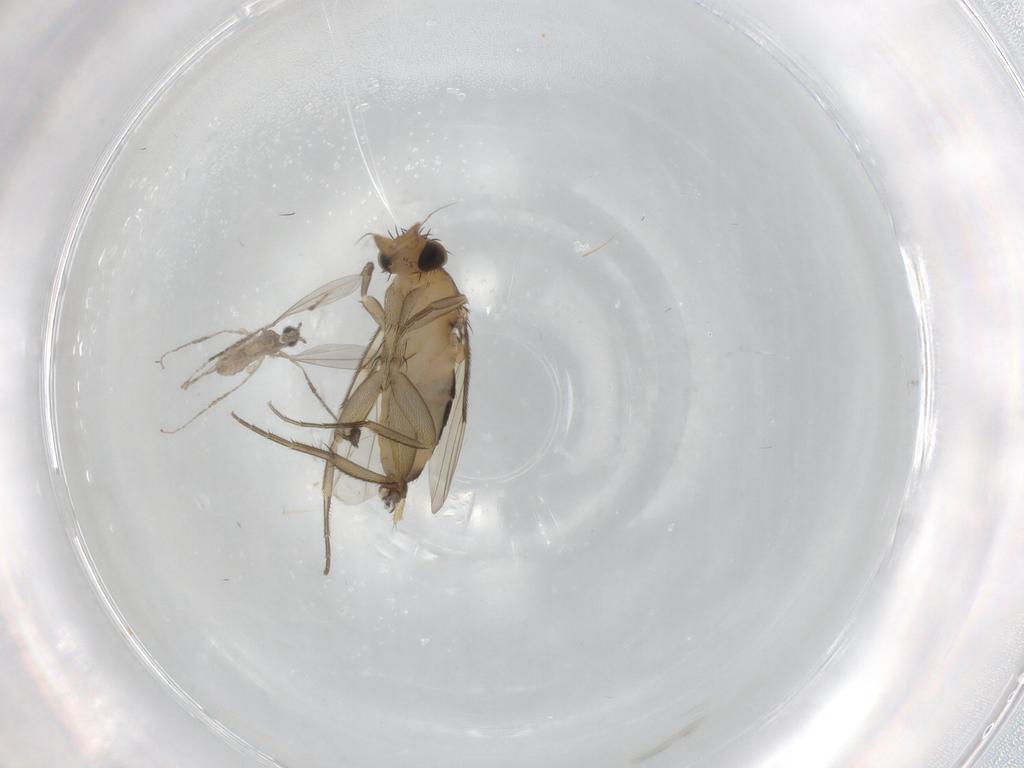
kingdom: Animalia
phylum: Arthropoda
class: Insecta
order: Diptera
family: Phoridae
